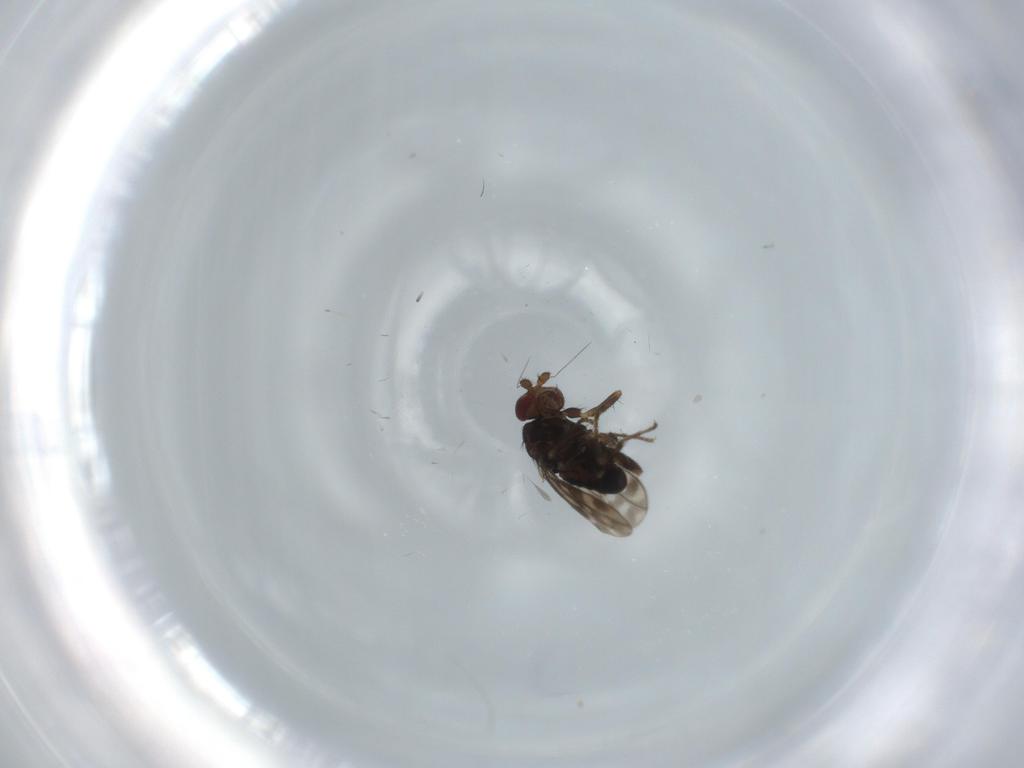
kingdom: Animalia
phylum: Arthropoda
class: Insecta
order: Diptera
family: Sphaeroceridae
